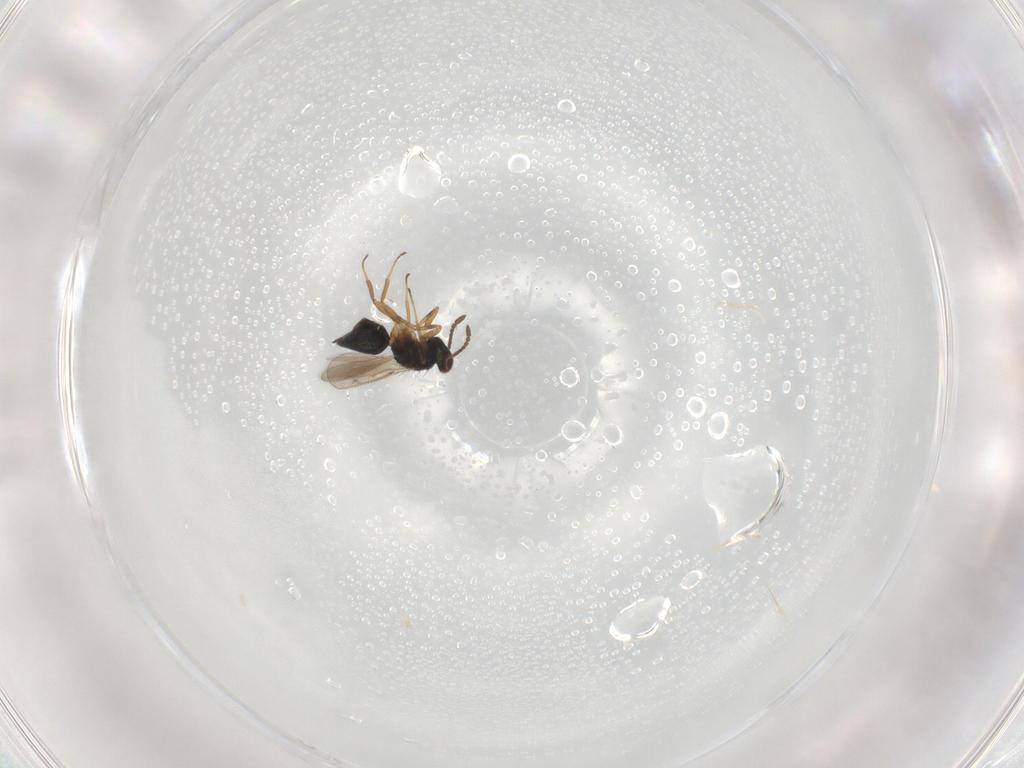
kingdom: Animalia
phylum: Arthropoda
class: Insecta
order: Hymenoptera
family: Tetracampidae
